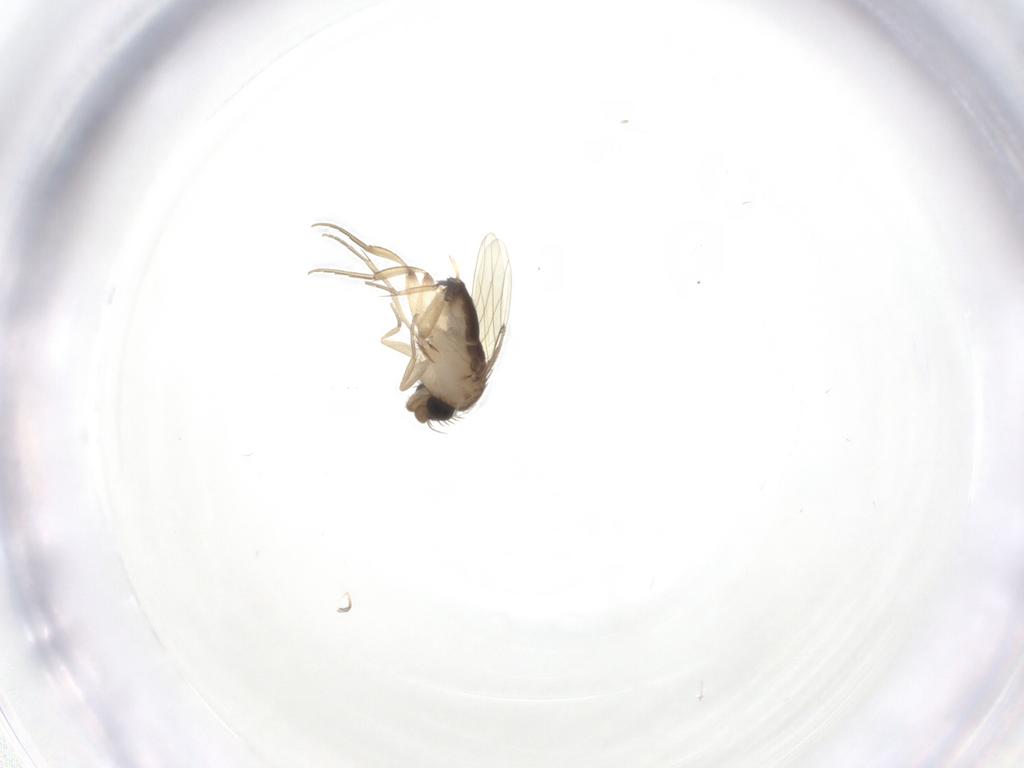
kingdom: Animalia
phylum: Arthropoda
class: Insecta
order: Diptera
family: Phoridae
